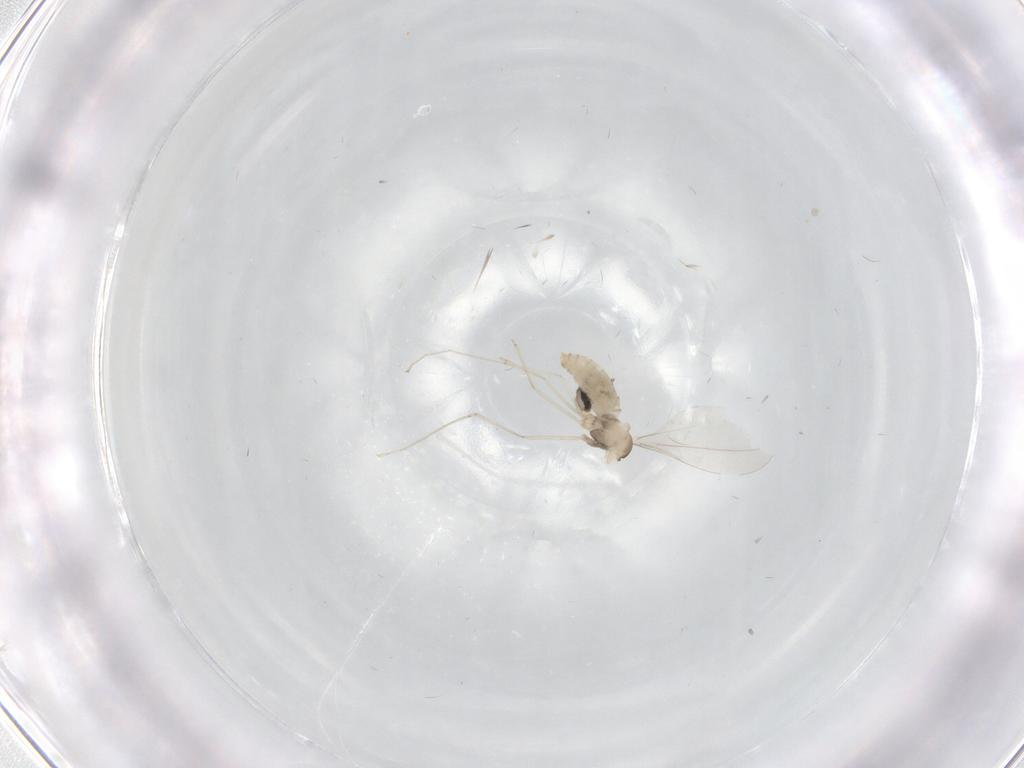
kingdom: Animalia
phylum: Arthropoda
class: Insecta
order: Diptera
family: Cecidomyiidae
